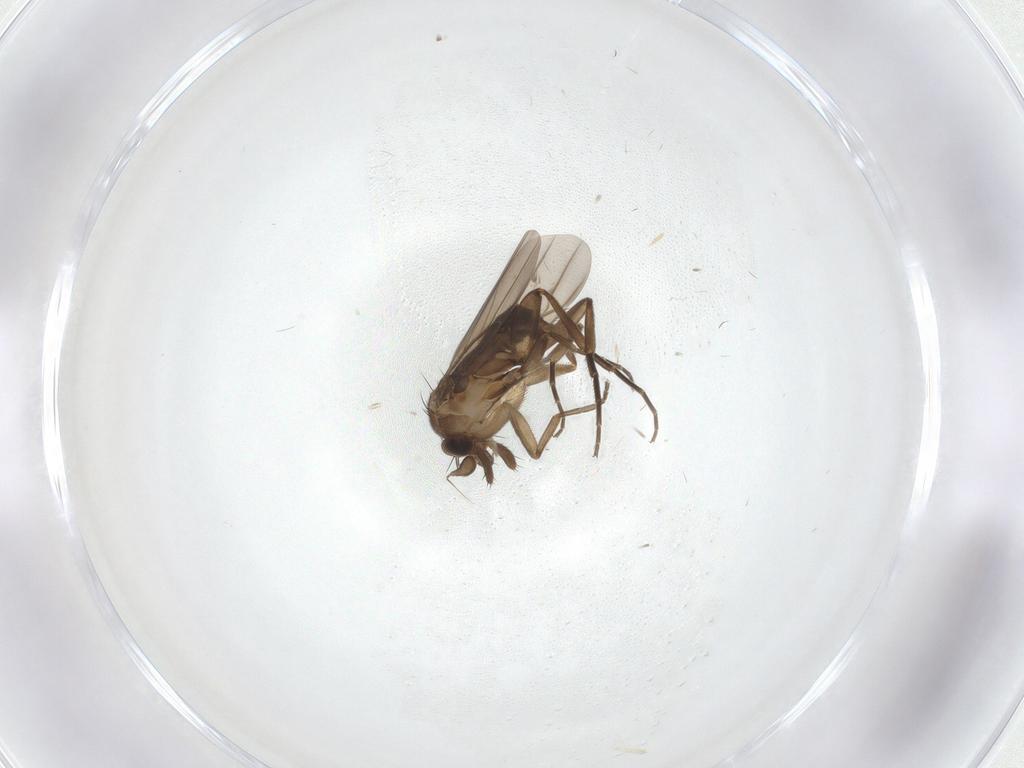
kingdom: Animalia
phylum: Arthropoda
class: Insecta
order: Diptera
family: Phoridae
